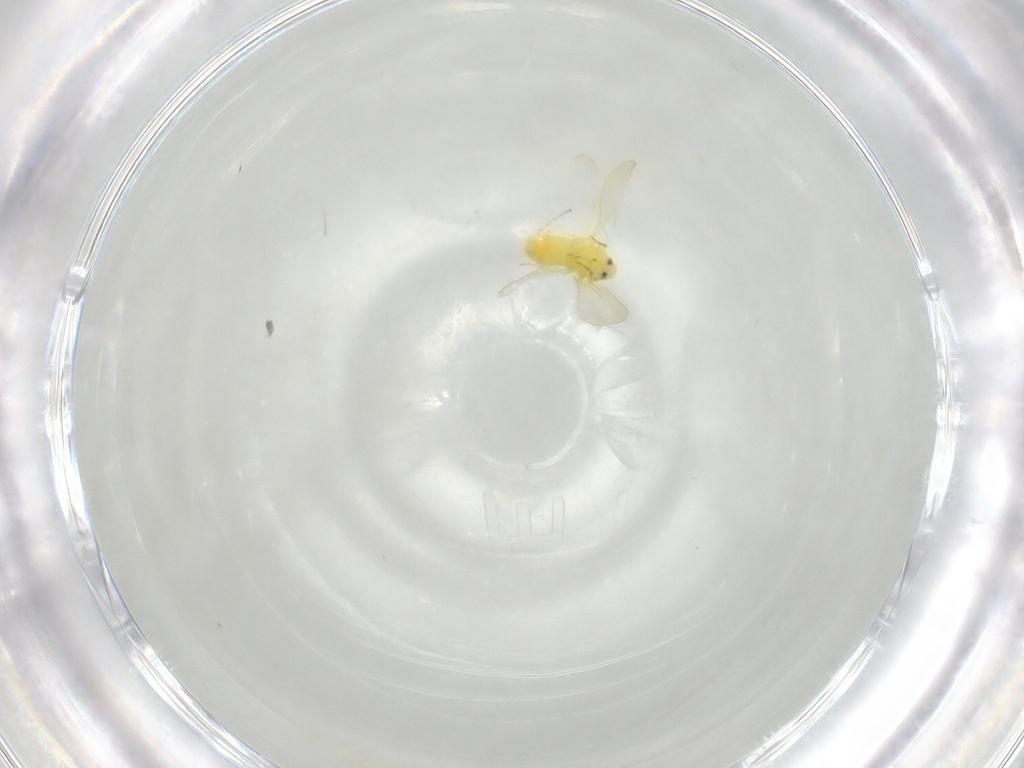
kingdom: Animalia
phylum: Arthropoda
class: Insecta
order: Hemiptera
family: Aleyrodidae
